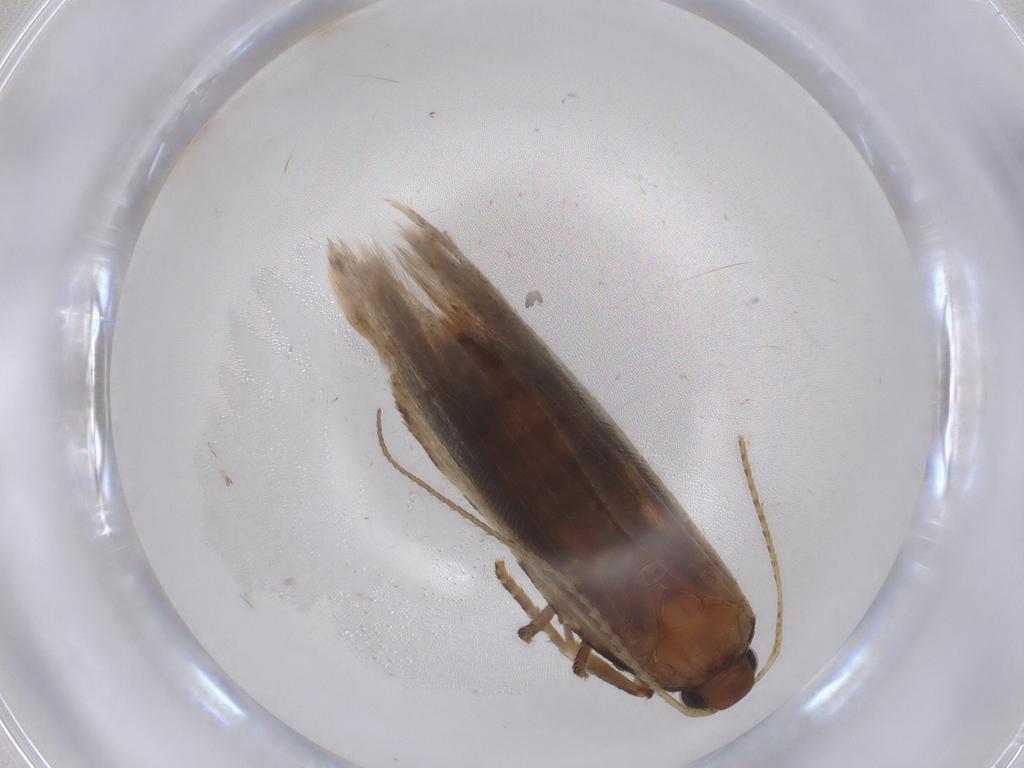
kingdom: Animalia
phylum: Arthropoda
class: Insecta
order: Lepidoptera
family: Gelechiidae
